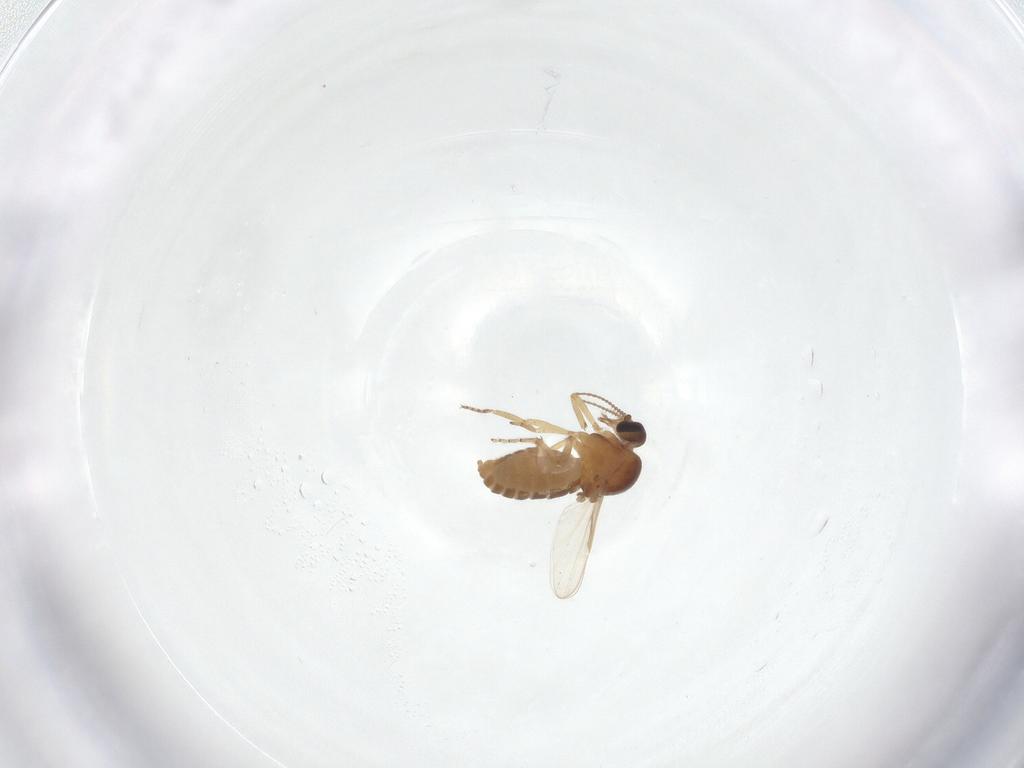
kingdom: Animalia
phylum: Arthropoda
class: Insecta
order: Diptera
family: Ceratopogonidae
